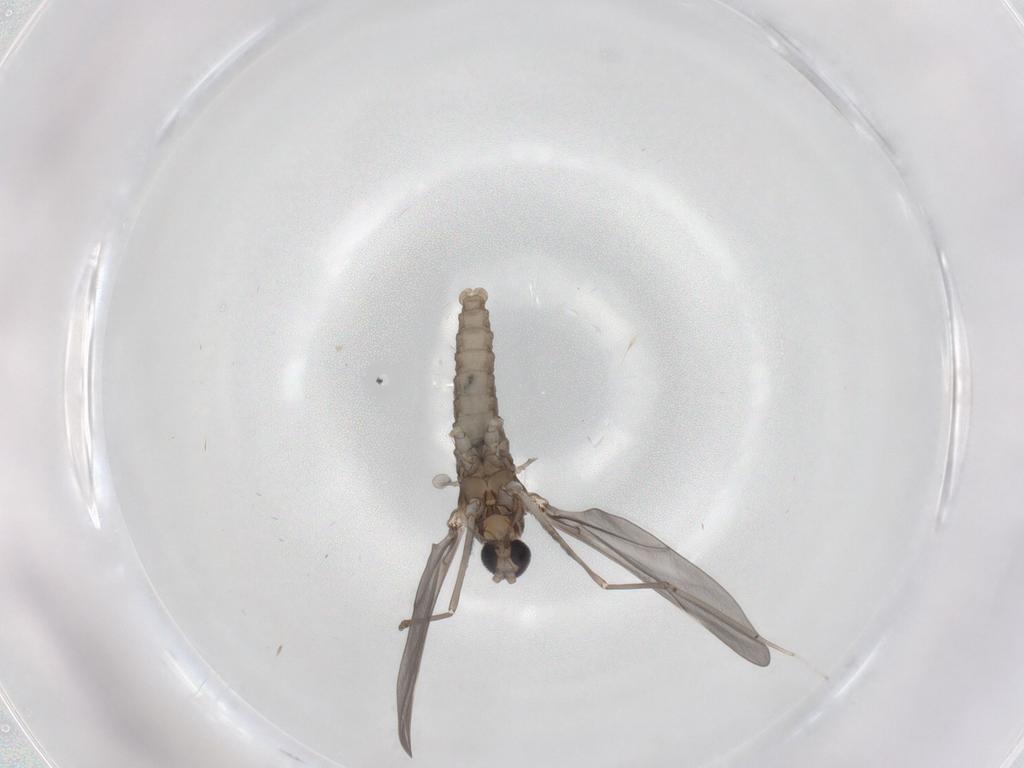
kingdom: Animalia
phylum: Arthropoda
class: Insecta
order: Diptera
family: Cecidomyiidae
